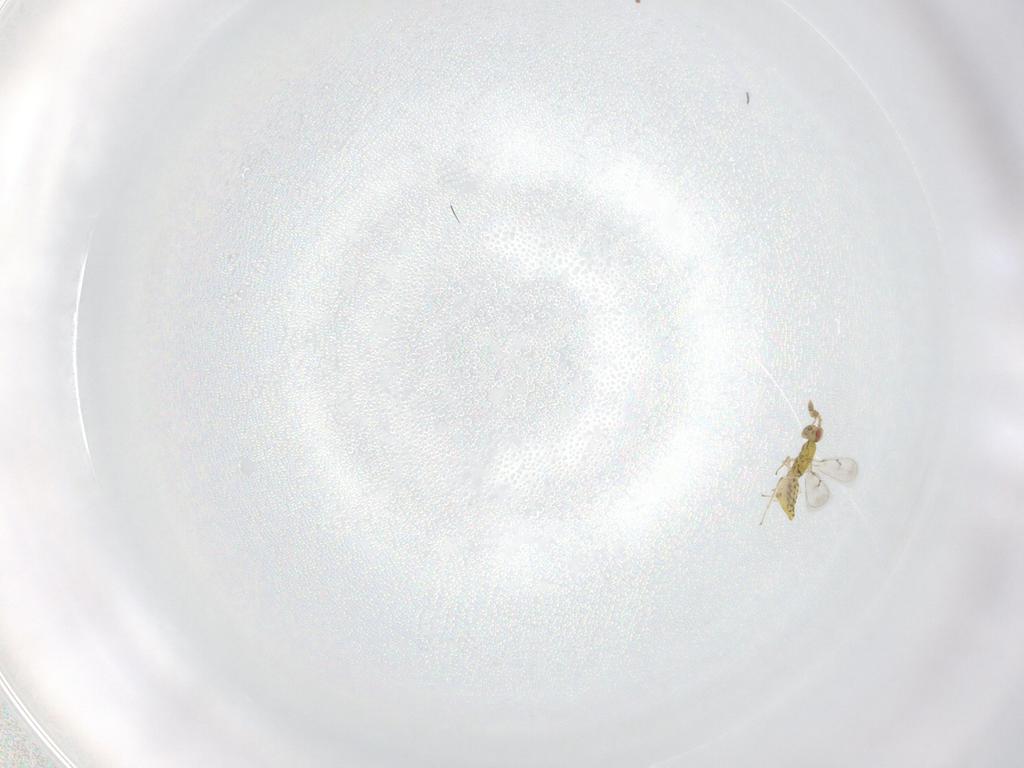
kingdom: Animalia
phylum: Arthropoda
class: Insecta
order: Hymenoptera
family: Eulophidae
